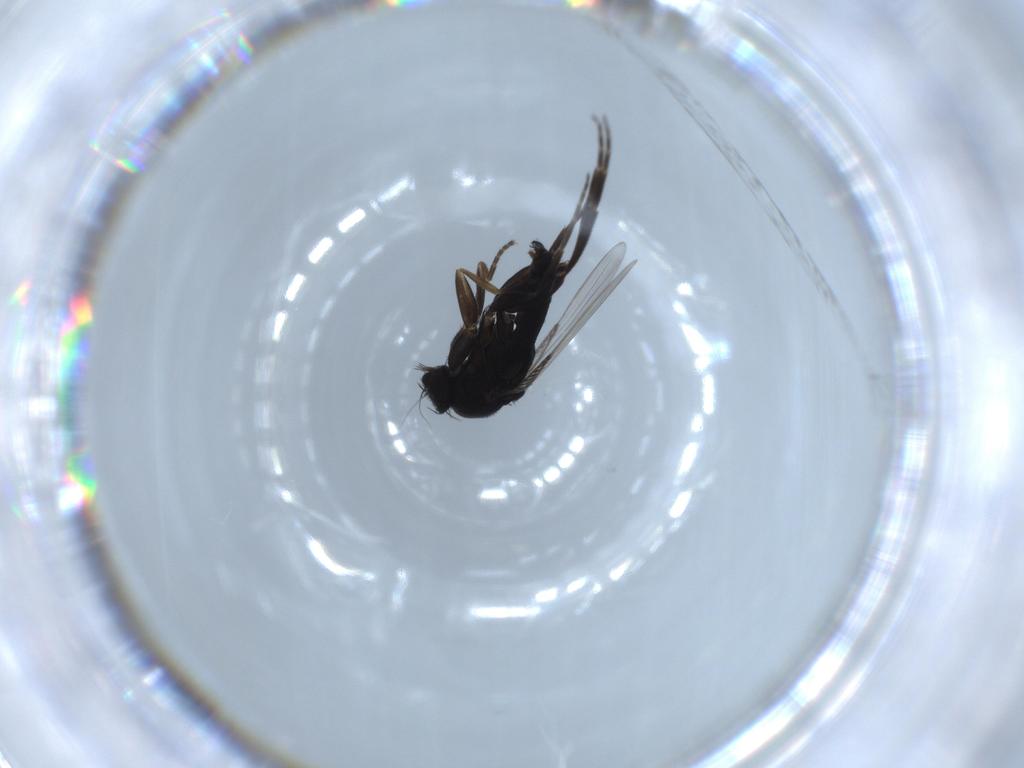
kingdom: Animalia
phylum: Arthropoda
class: Insecta
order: Diptera
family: Phoridae
